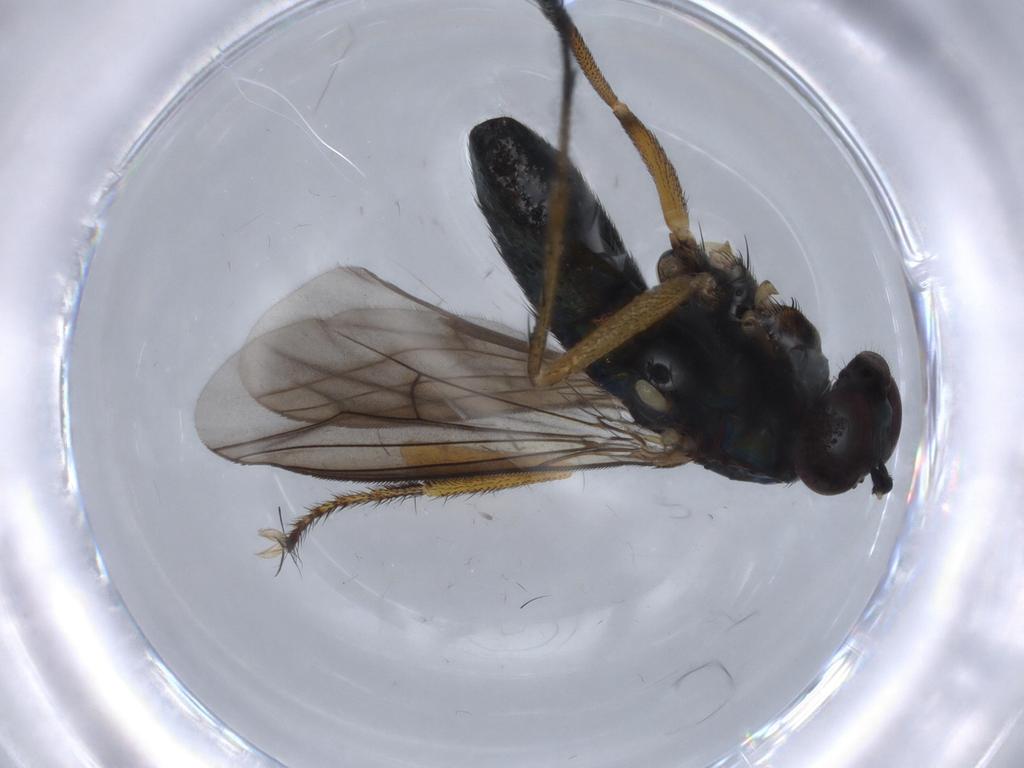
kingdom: Animalia
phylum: Arthropoda
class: Insecta
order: Diptera
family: Dolichopodidae
